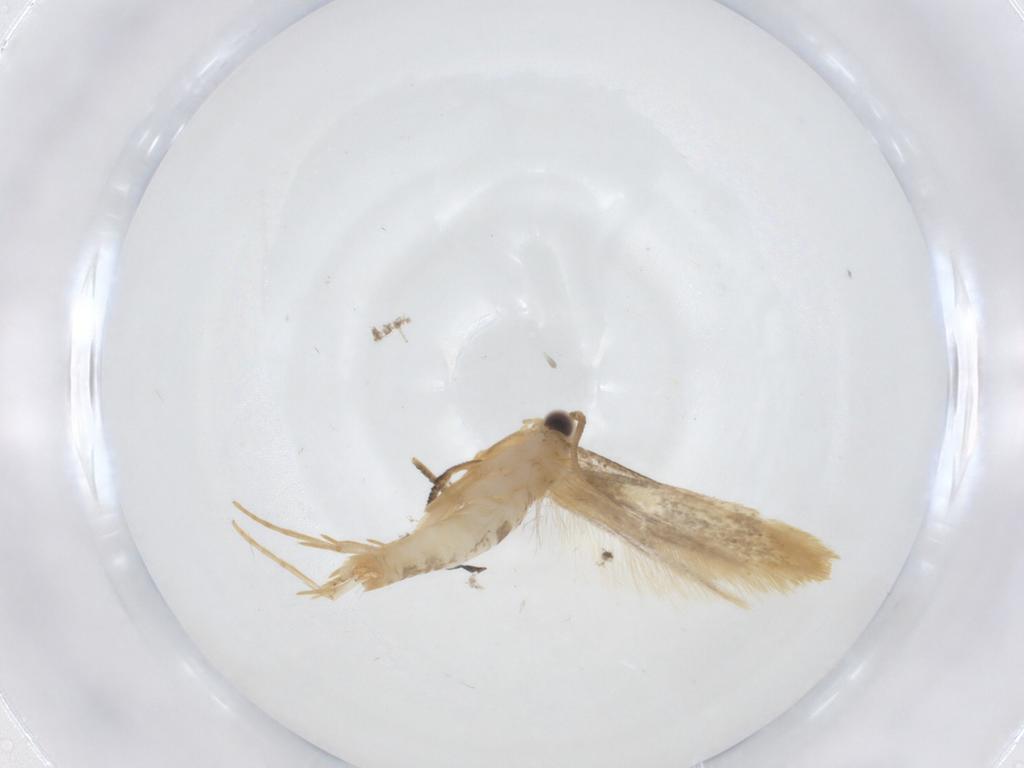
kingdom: Animalia
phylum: Arthropoda
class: Insecta
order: Lepidoptera
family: Tineidae
